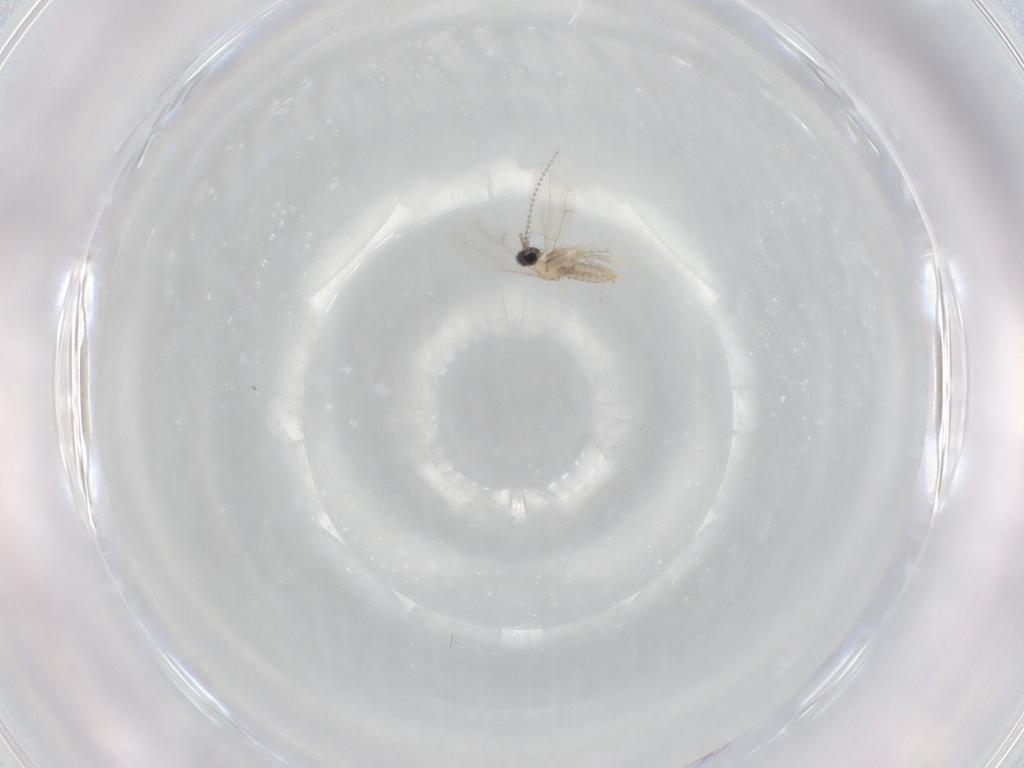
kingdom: Animalia
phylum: Arthropoda
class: Insecta
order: Diptera
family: Cecidomyiidae
